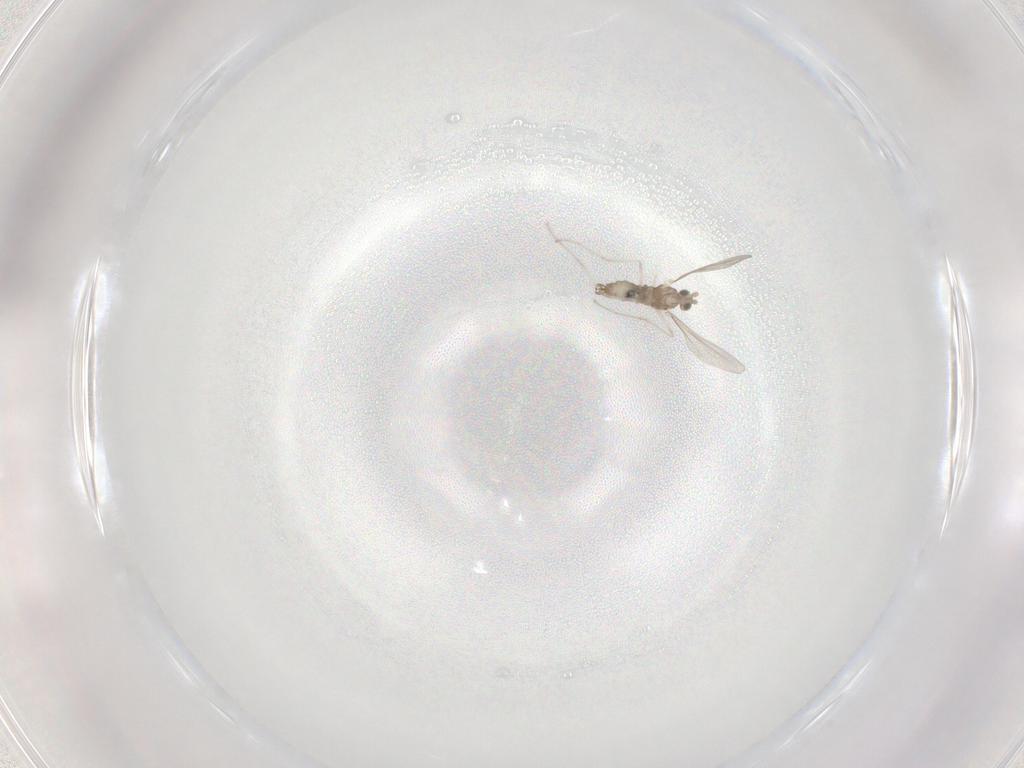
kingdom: Animalia
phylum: Arthropoda
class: Insecta
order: Diptera
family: Cecidomyiidae
